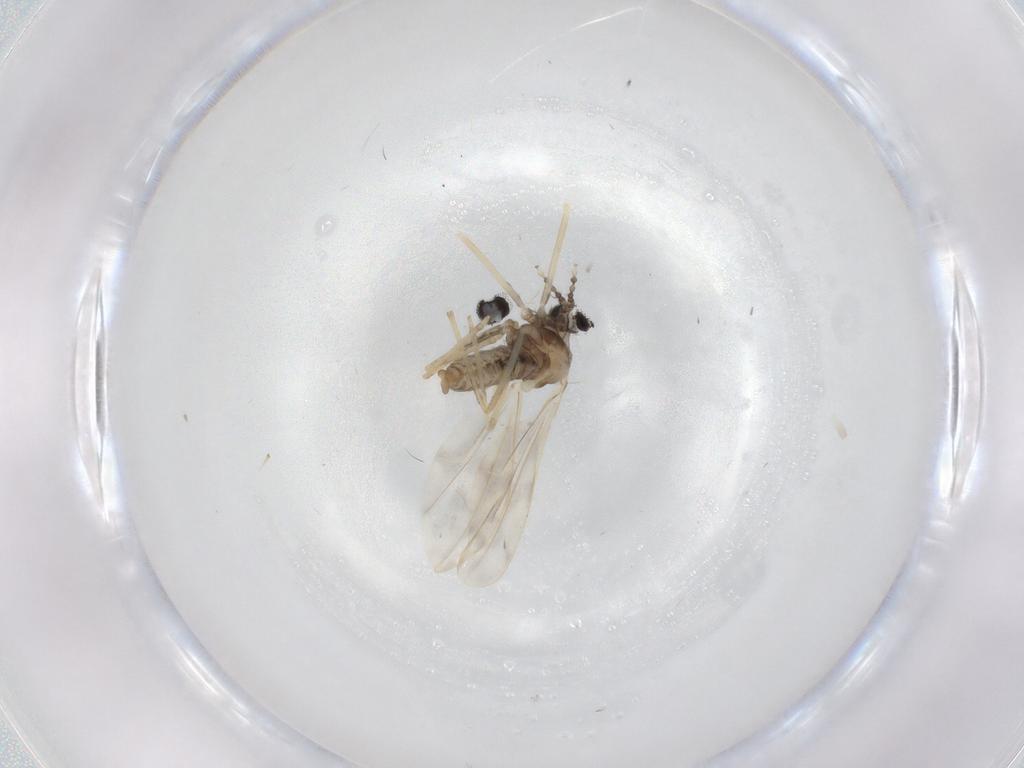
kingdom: Animalia
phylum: Arthropoda
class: Insecta
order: Diptera
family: Cecidomyiidae
